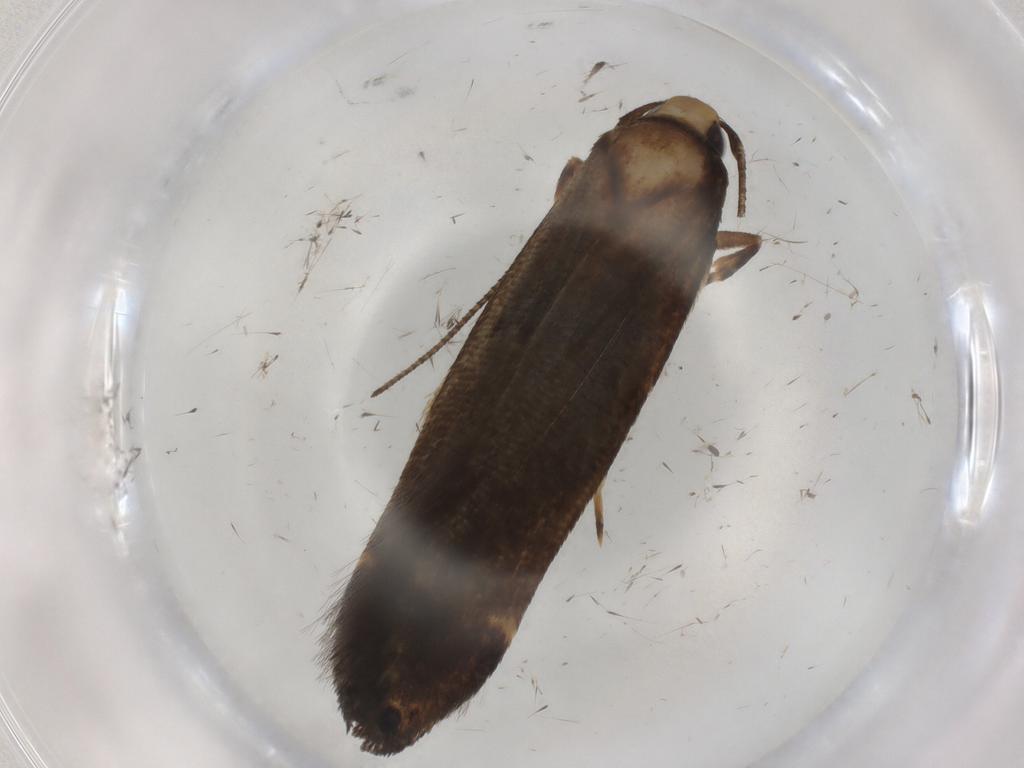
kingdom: Animalia
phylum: Arthropoda
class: Insecta
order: Lepidoptera
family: Cosmopterigidae
